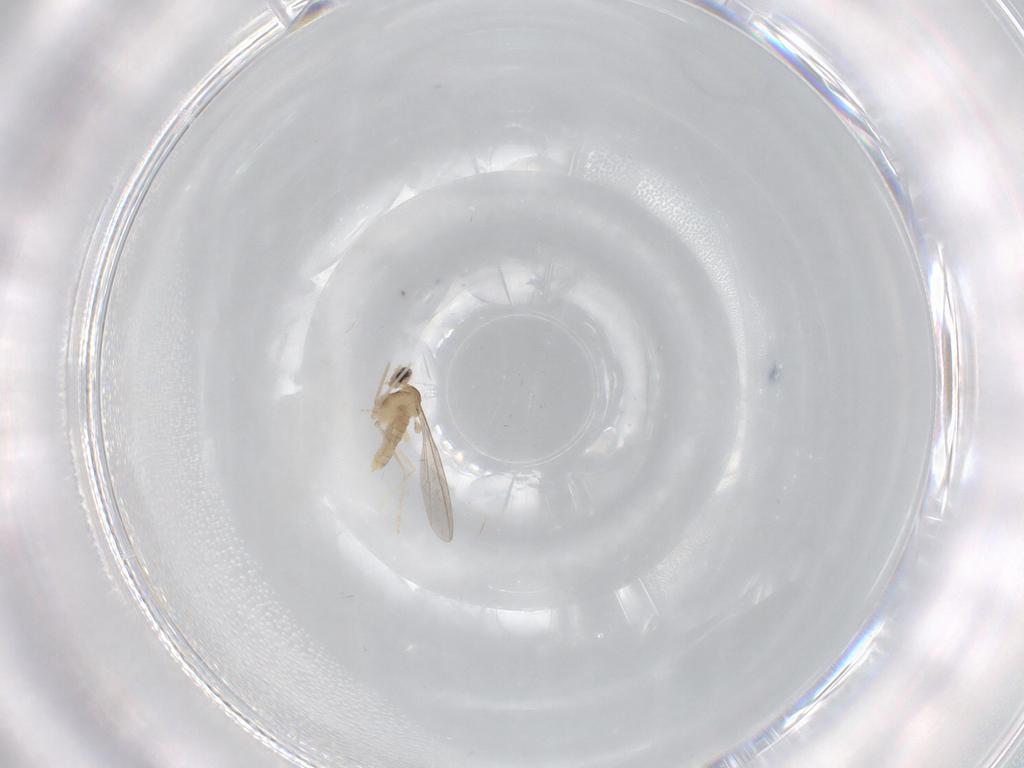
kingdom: Animalia
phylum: Arthropoda
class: Insecta
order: Diptera
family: Cecidomyiidae
